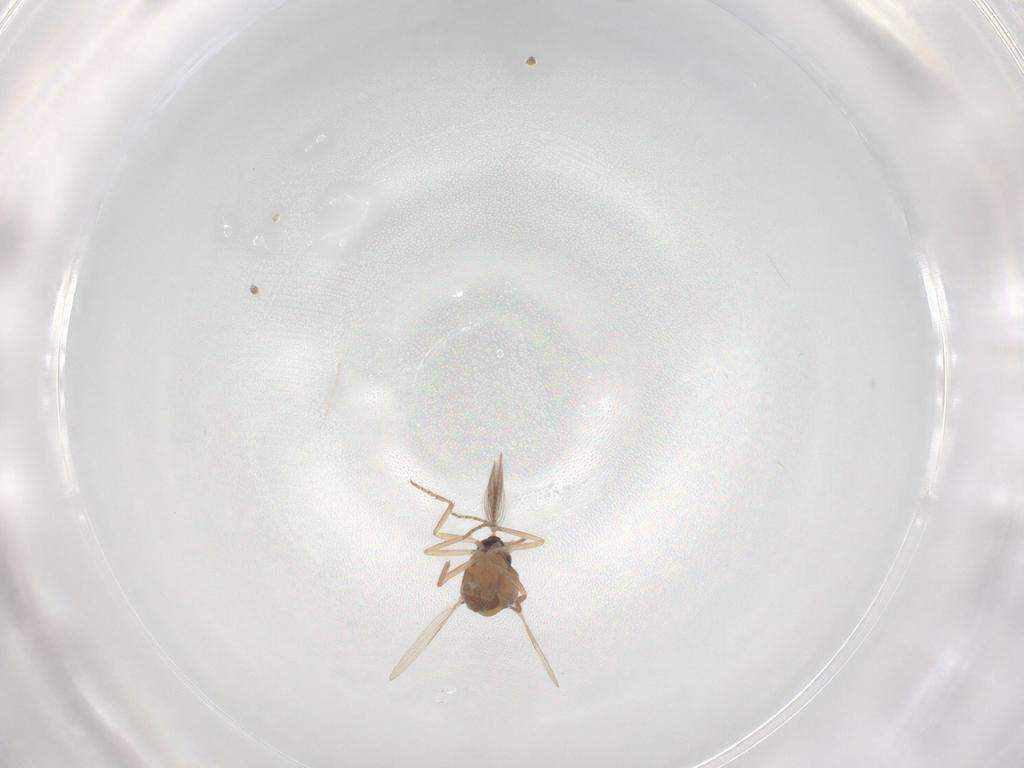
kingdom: Animalia
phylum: Arthropoda
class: Insecta
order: Diptera
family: Ceratopogonidae
